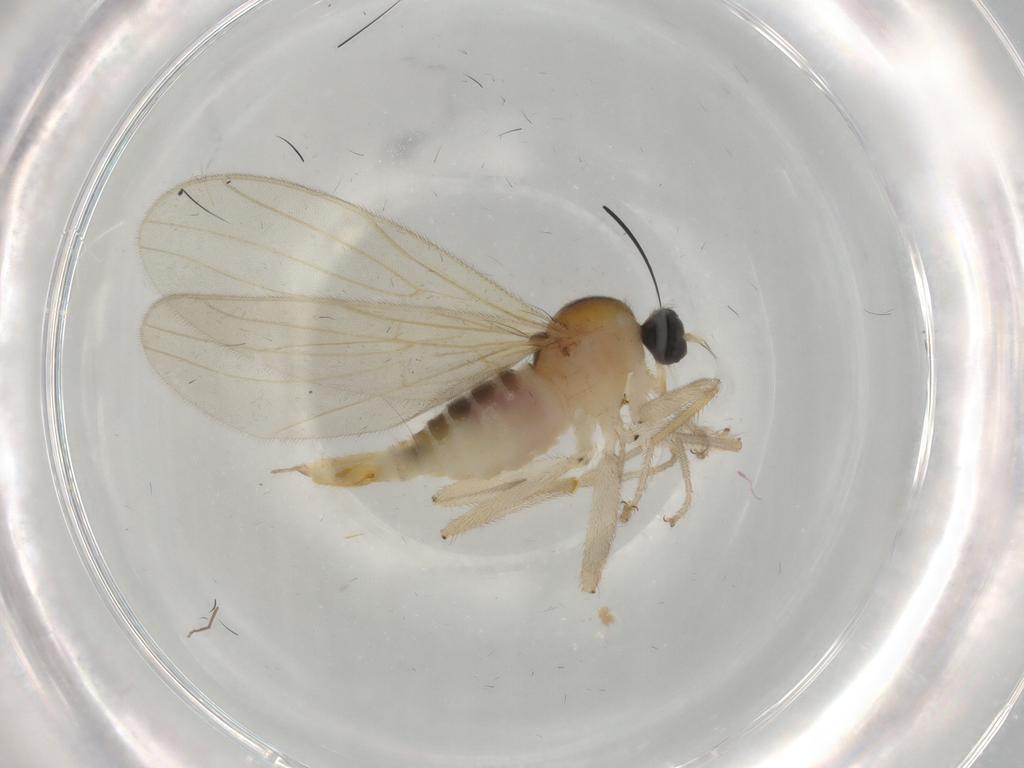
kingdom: Animalia
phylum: Arthropoda
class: Insecta
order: Diptera
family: Hybotidae
